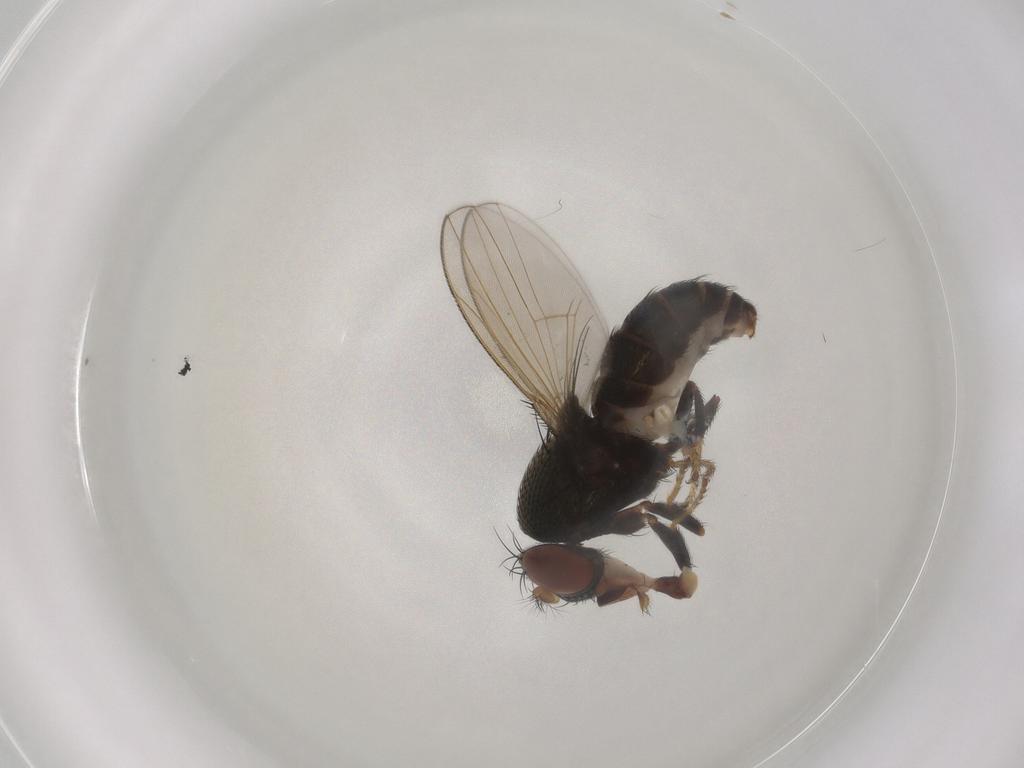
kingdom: Animalia
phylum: Arthropoda
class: Insecta
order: Diptera
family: Ephydridae
